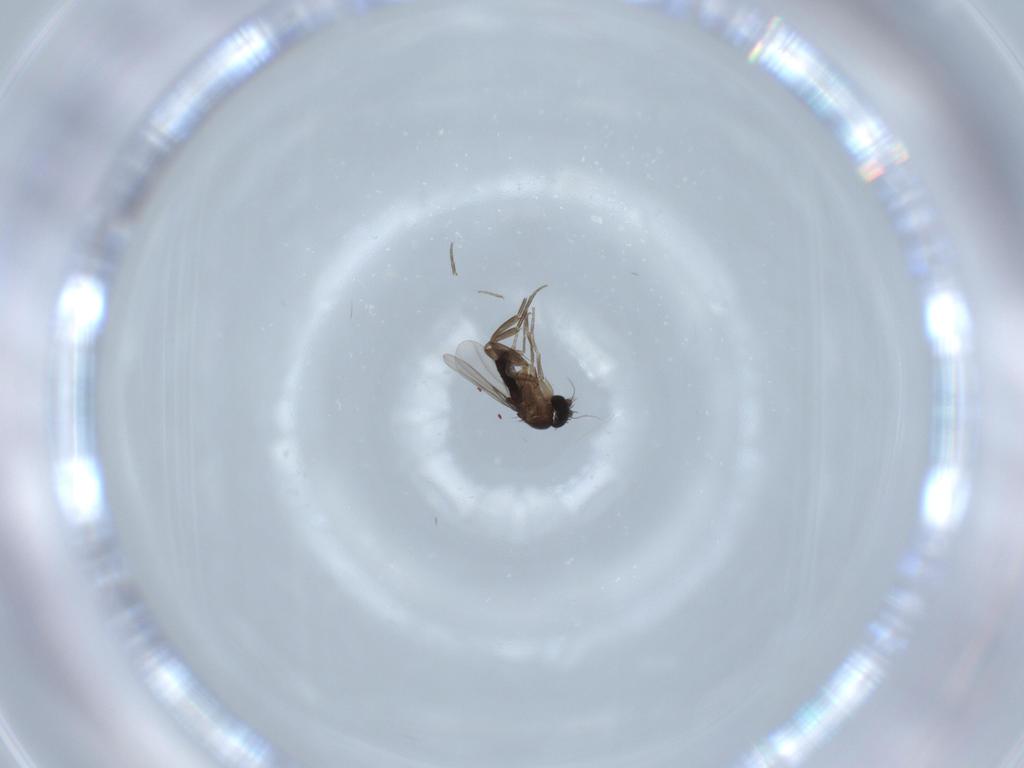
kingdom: Animalia
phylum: Arthropoda
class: Insecta
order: Diptera
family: Phoridae
